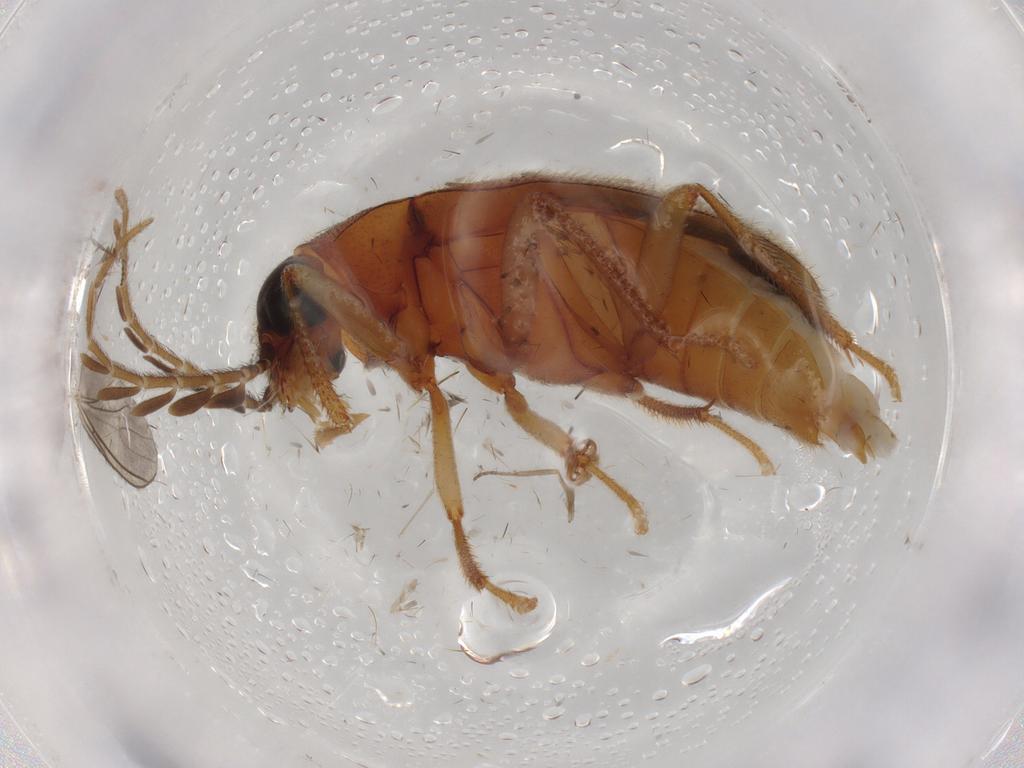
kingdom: Animalia
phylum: Arthropoda
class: Insecta
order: Coleoptera
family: Ptilodactylidae
